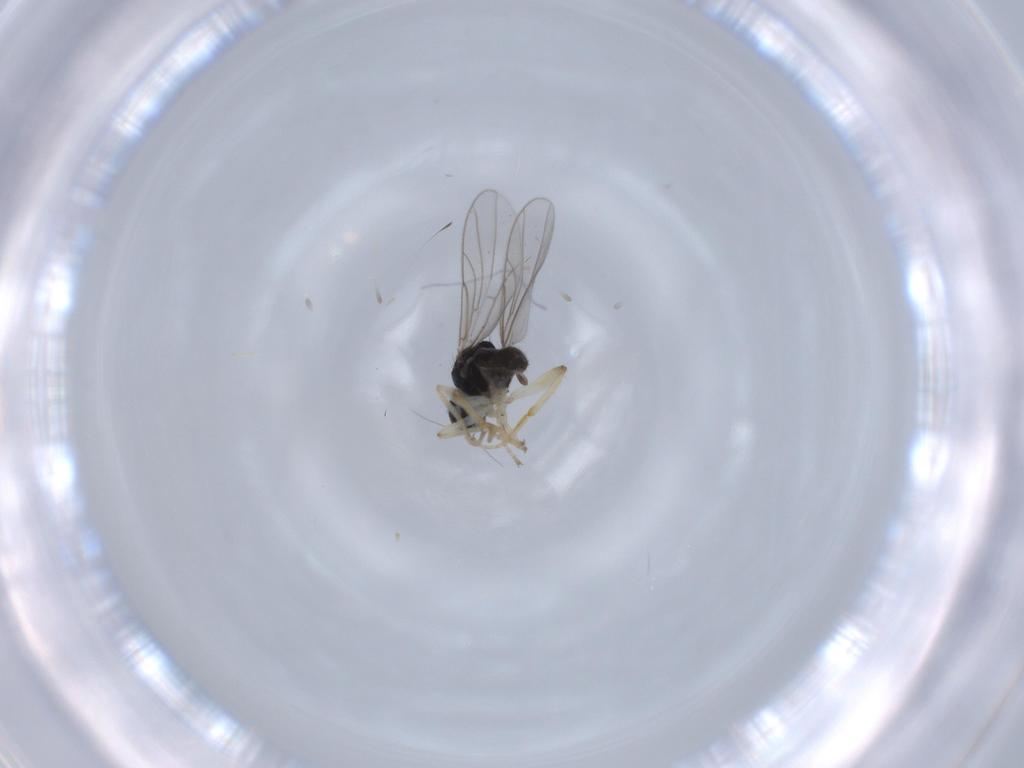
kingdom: Animalia
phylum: Arthropoda
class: Insecta
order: Diptera
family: Hybotidae
